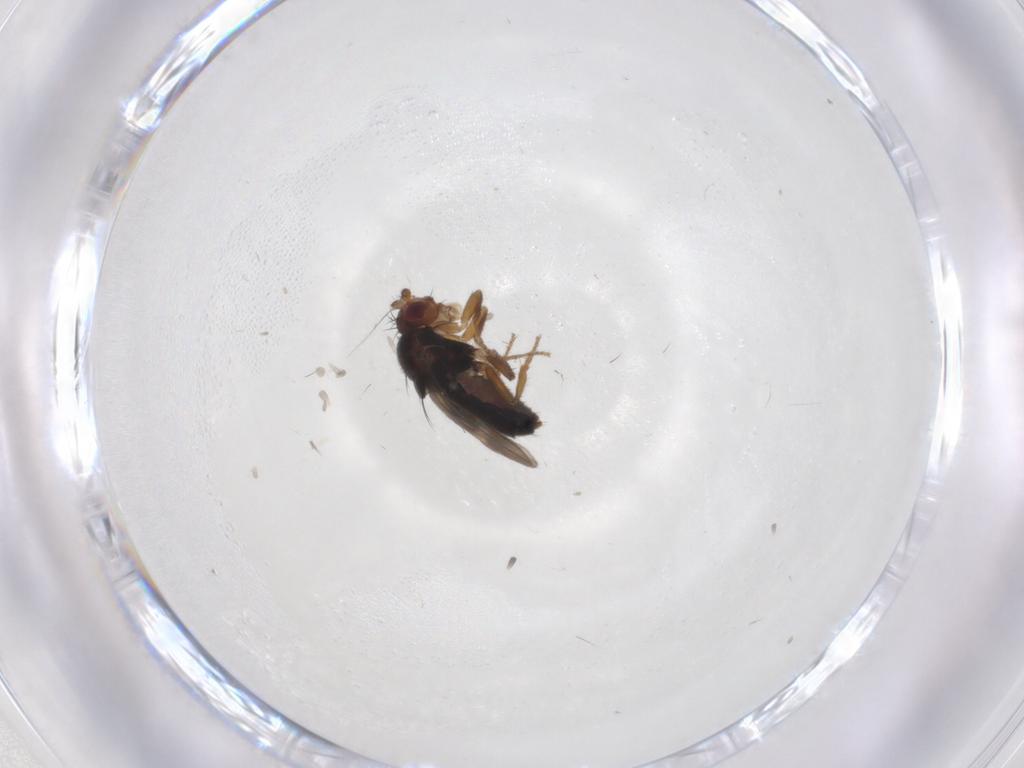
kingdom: Animalia
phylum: Arthropoda
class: Insecta
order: Diptera
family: Sphaeroceridae
